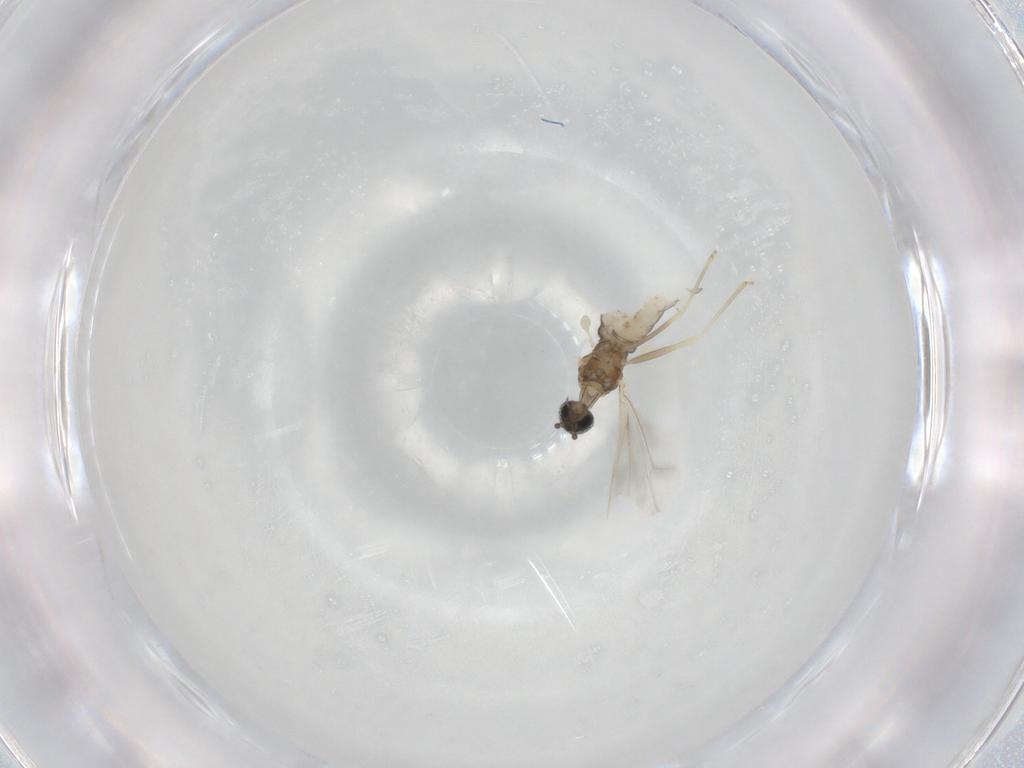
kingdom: Animalia
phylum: Arthropoda
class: Insecta
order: Diptera
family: Cecidomyiidae
